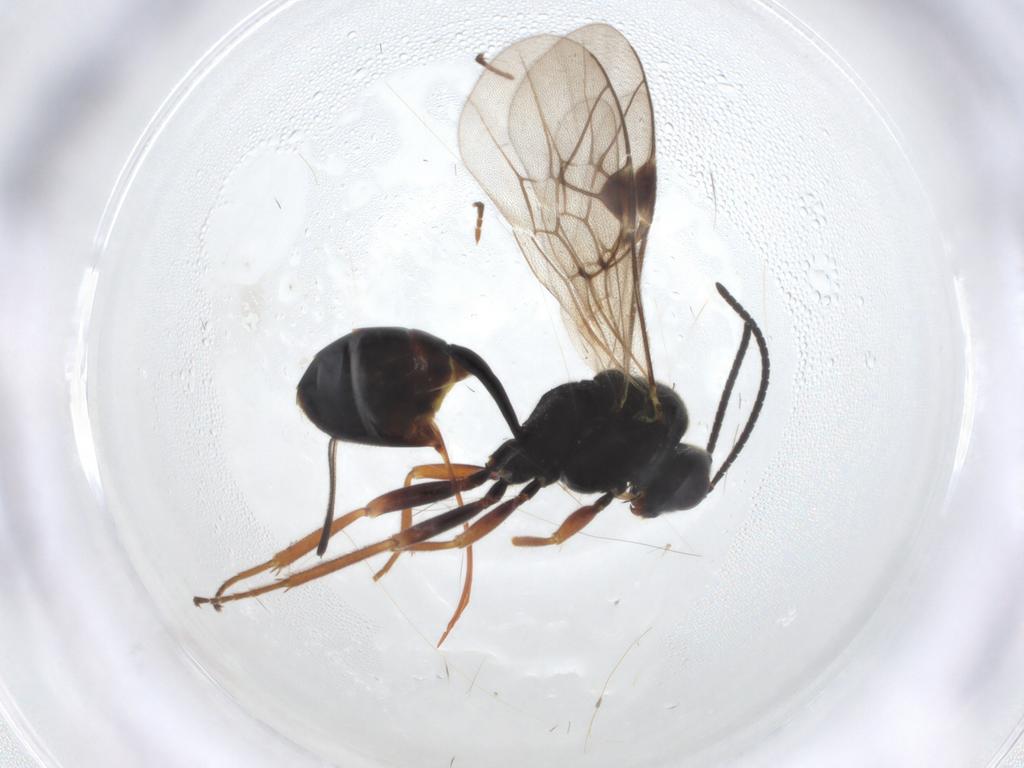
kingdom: Animalia
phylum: Arthropoda
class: Insecta
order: Hymenoptera
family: Ichneumonidae
